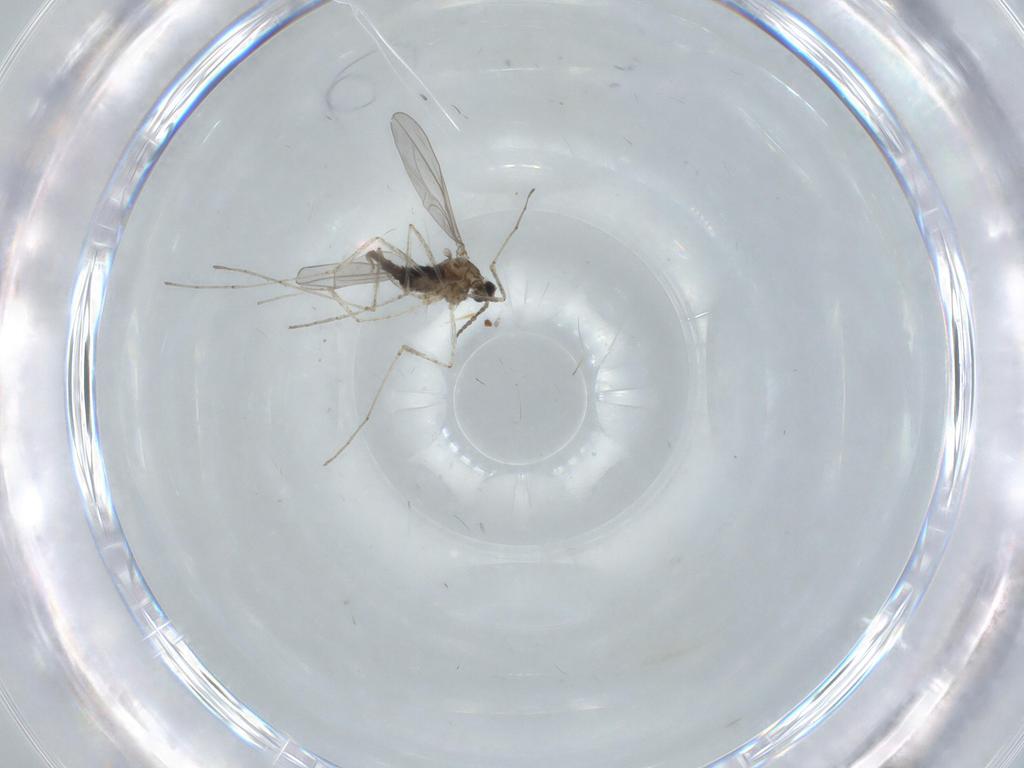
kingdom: Animalia
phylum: Arthropoda
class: Insecta
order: Diptera
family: Cecidomyiidae
